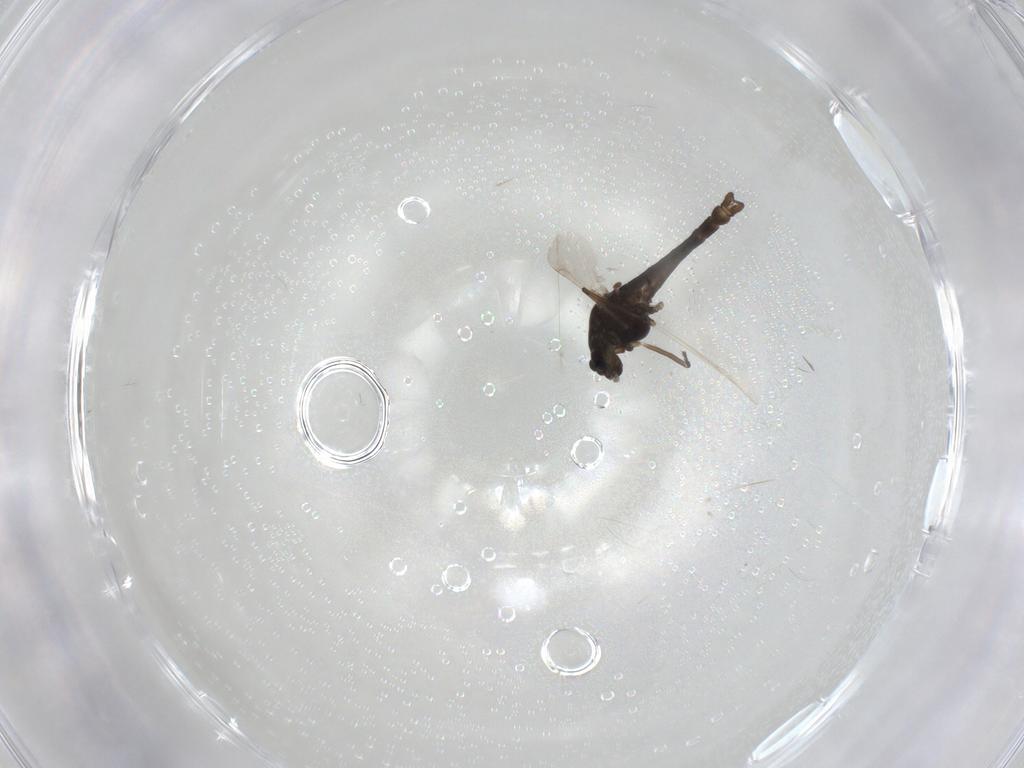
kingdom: Animalia
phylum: Arthropoda
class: Insecta
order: Diptera
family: Chironomidae
